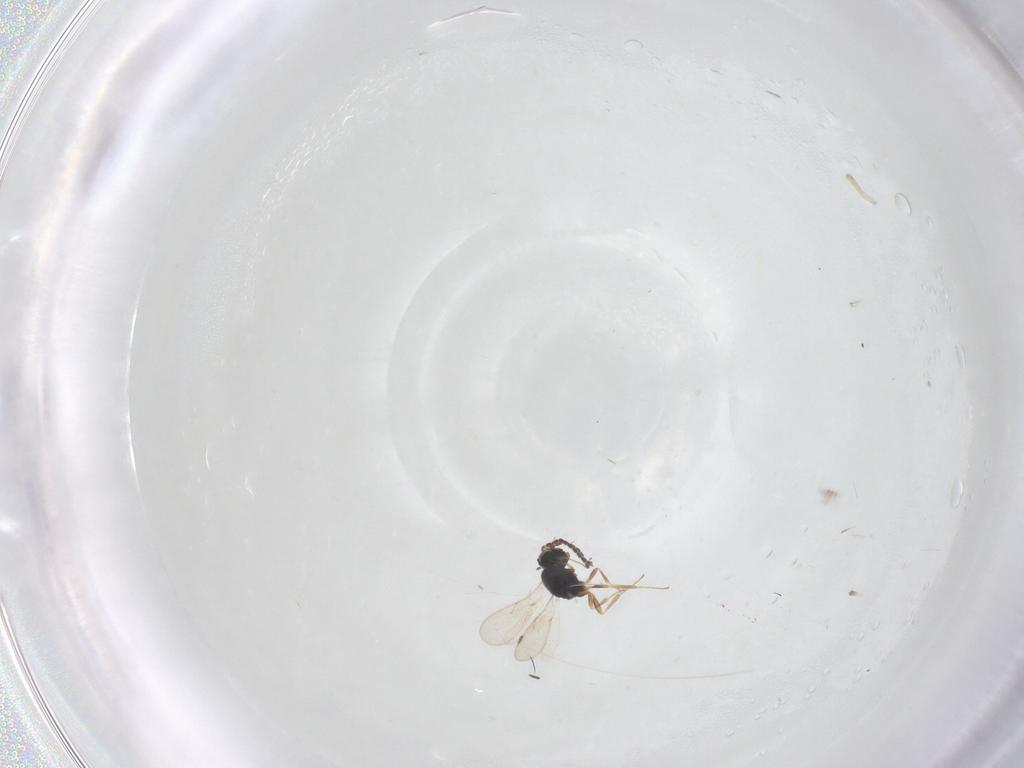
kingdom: Animalia
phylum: Arthropoda
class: Insecta
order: Hymenoptera
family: Scelionidae
